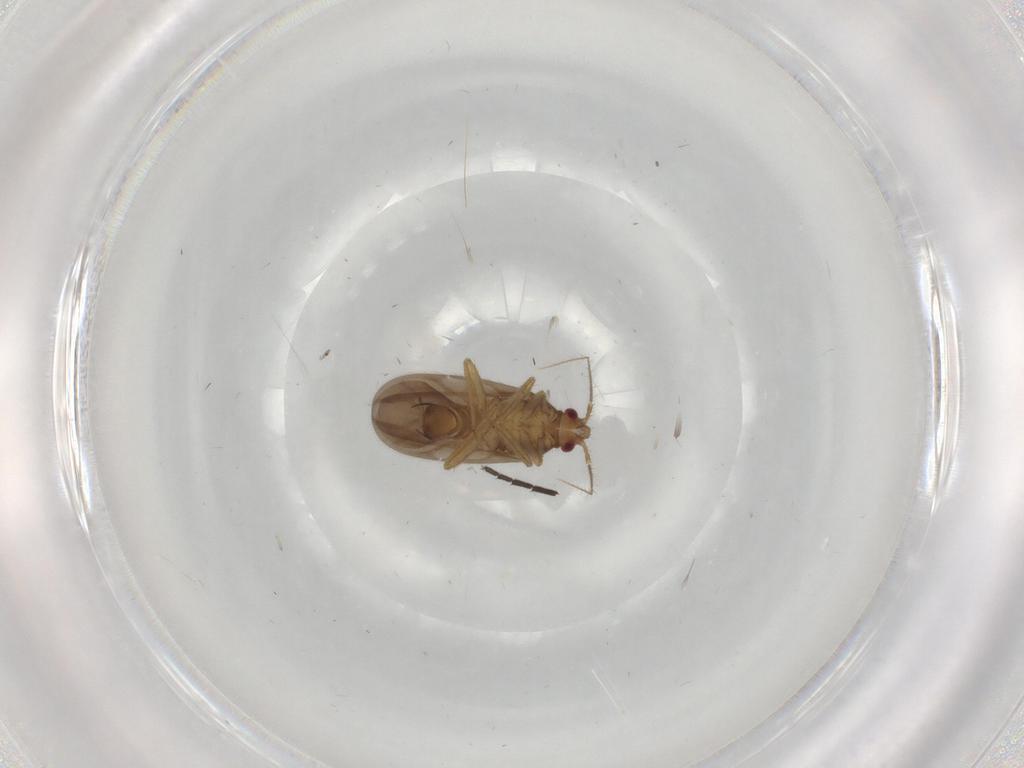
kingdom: Animalia
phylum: Arthropoda
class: Insecta
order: Hemiptera
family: Ceratocombidae
